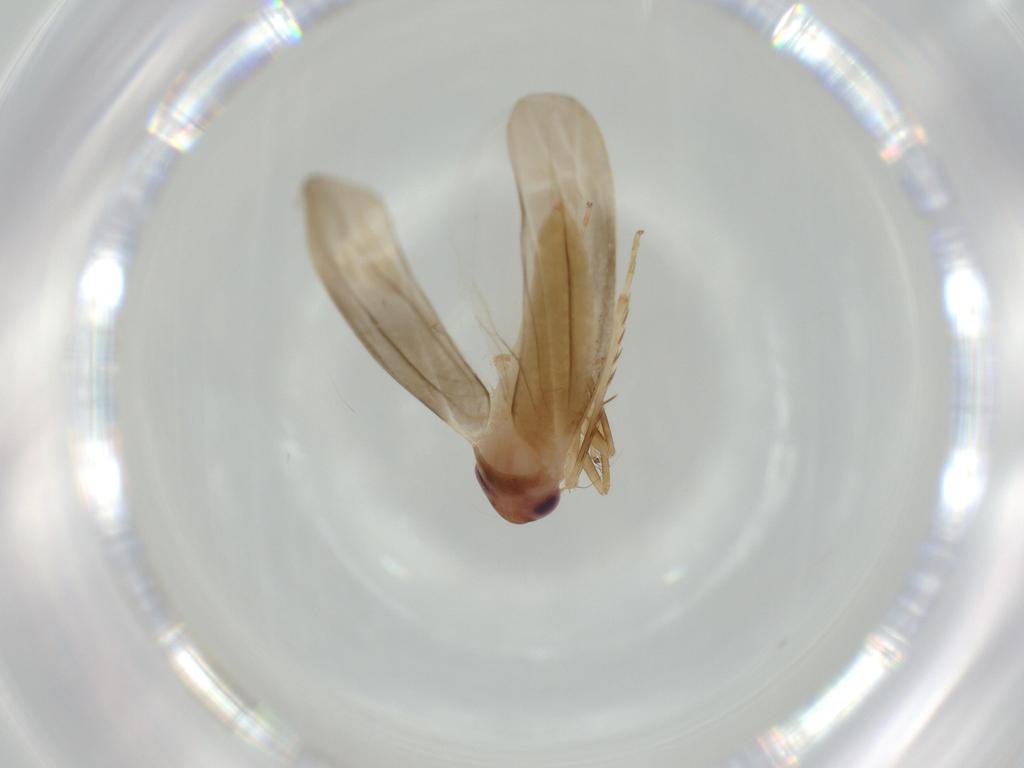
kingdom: Animalia
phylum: Arthropoda
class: Insecta
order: Hemiptera
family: Cicadellidae
